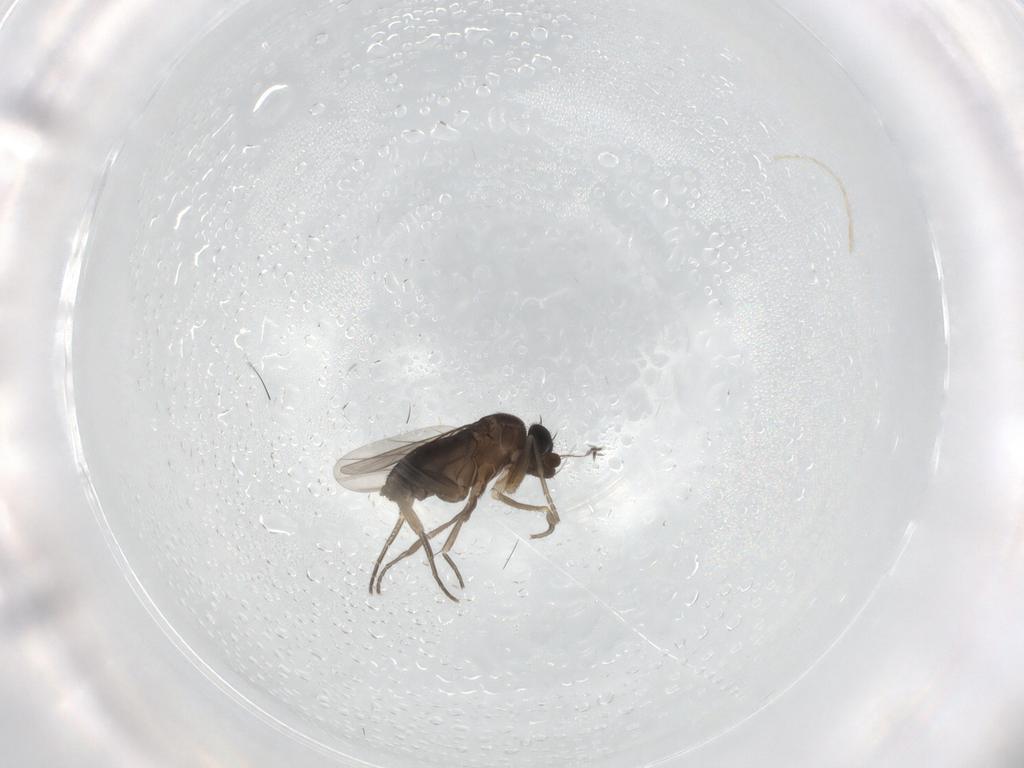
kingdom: Animalia
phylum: Arthropoda
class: Insecta
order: Diptera
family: Phoridae
